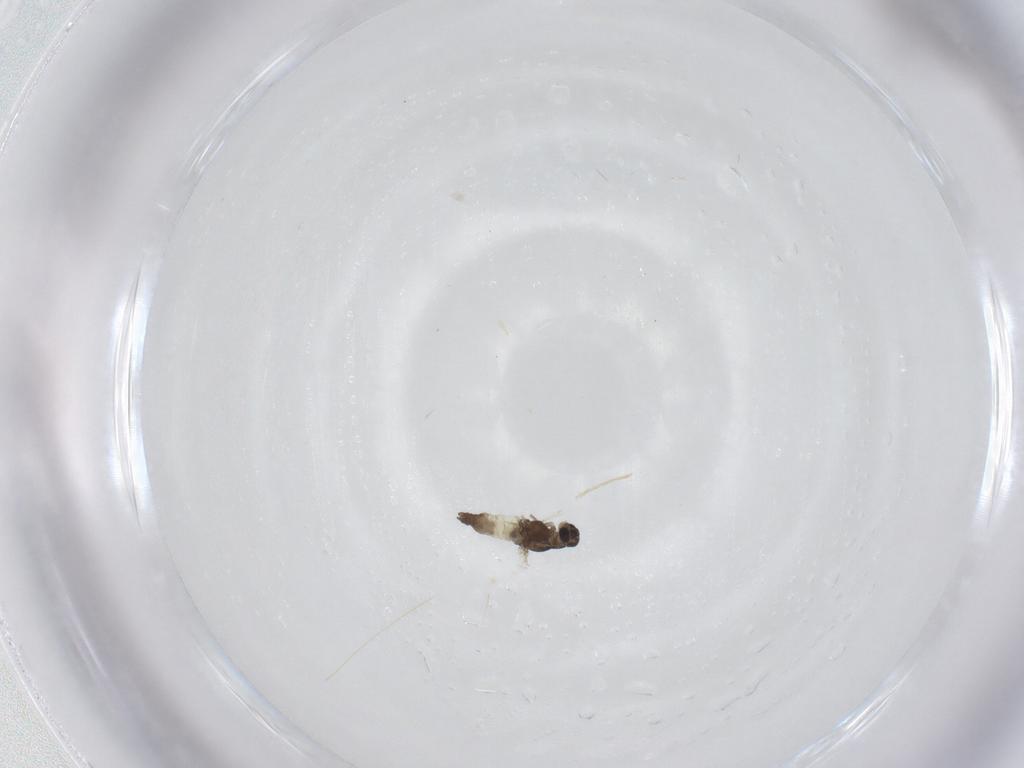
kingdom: Animalia
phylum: Arthropoda
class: Insecta
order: Diptera
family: Chironomidae
